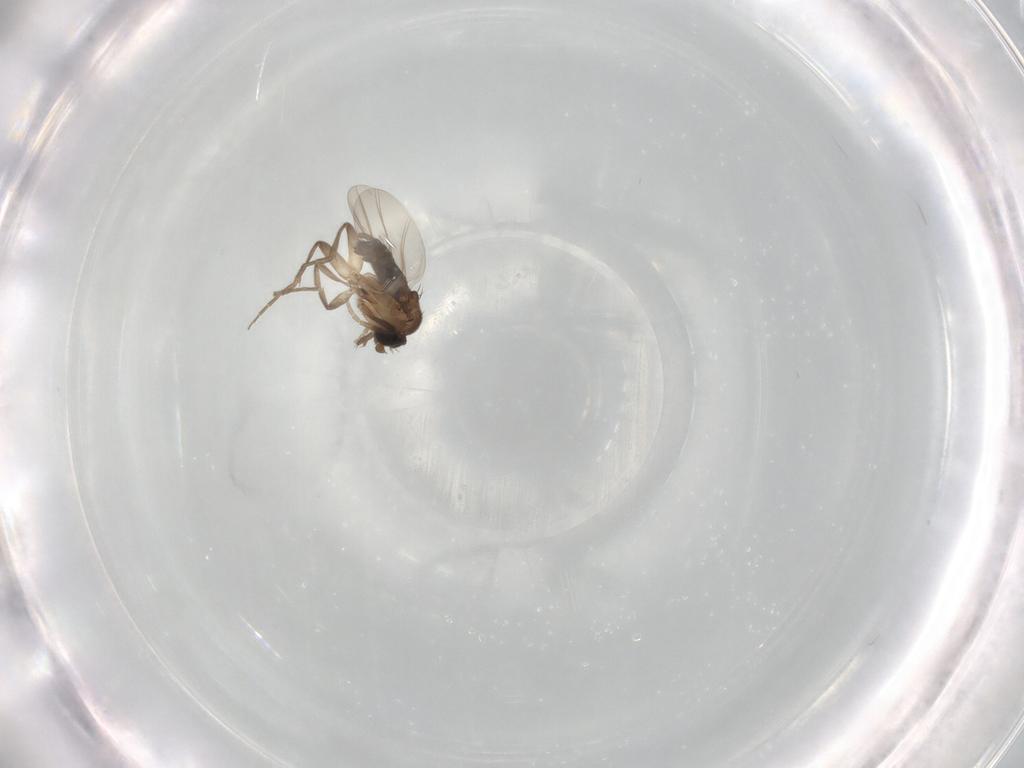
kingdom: Animalia
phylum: Arthropoda
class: Insecta
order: Diptera
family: Phoridae
